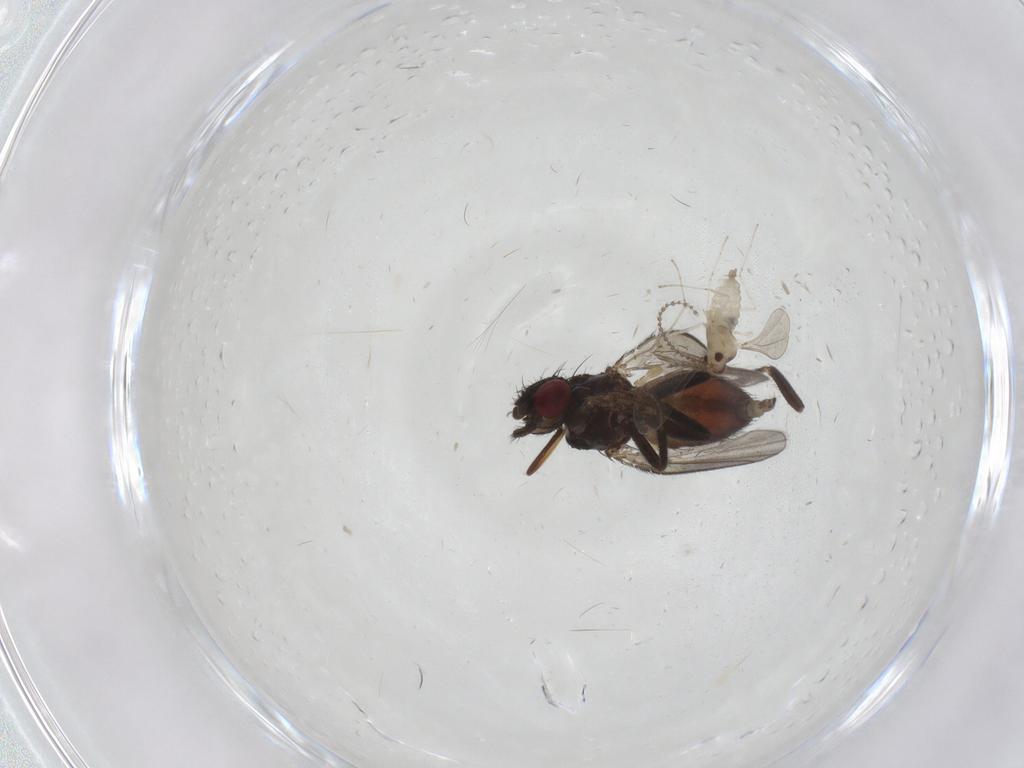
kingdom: Animalia
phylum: Arthropoda
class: Insecta
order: Diptera
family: Milichiidae
